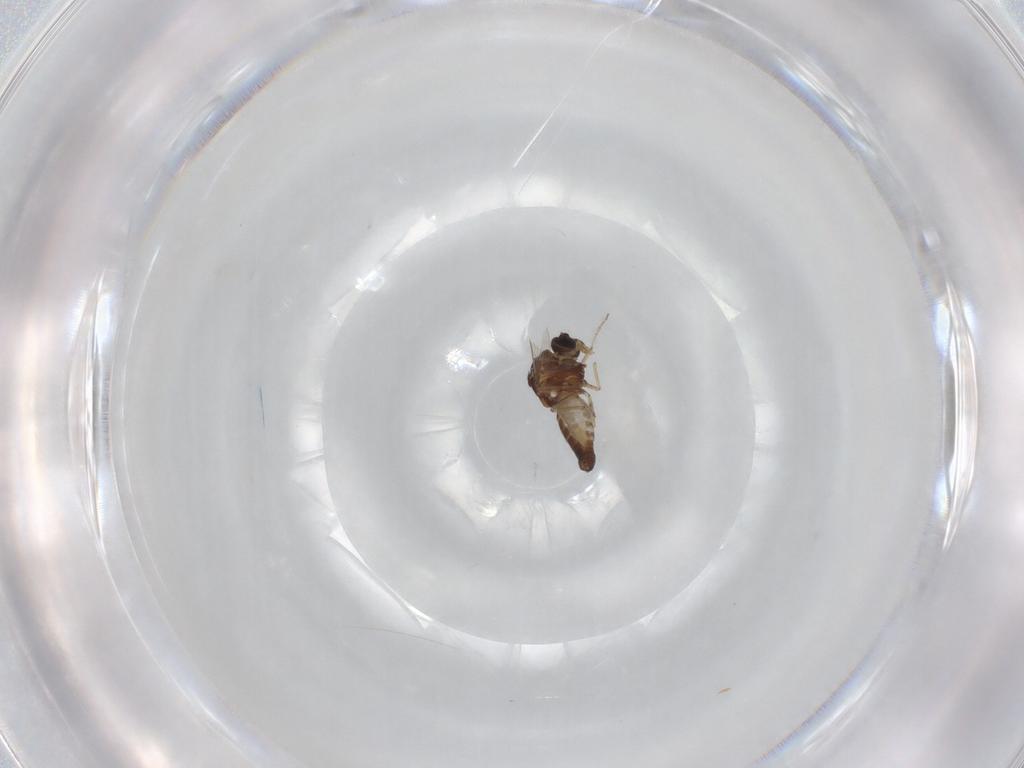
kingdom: Animalia
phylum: Arthropoda
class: Insecta
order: Diptera
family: Ceratopogonidae
